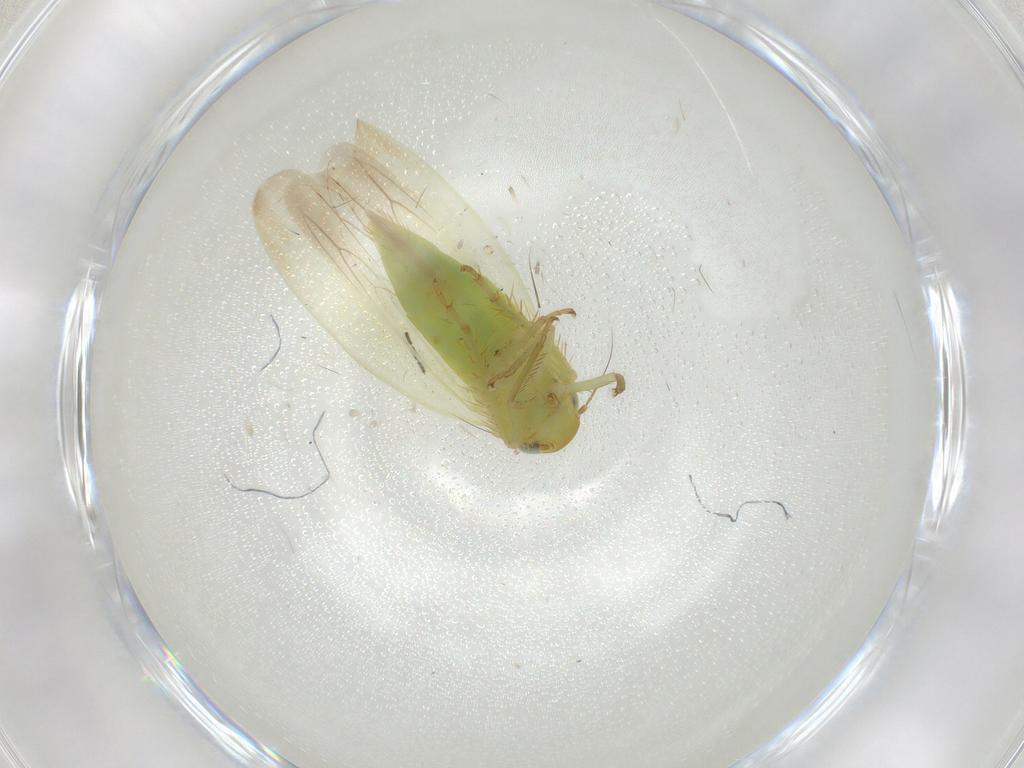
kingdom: Animalia
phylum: Arthropoda
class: Insecta
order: Hemiptera
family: Cicadellidae
